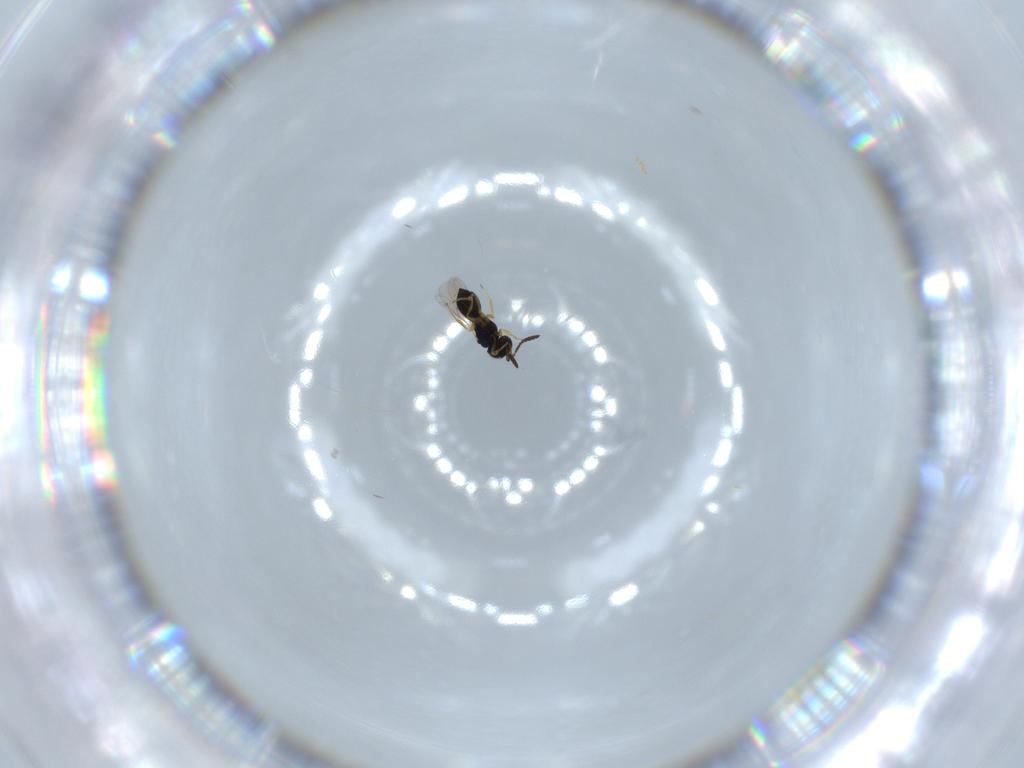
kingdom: Animalia
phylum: Arthropoda
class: Insecta
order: Hymenoptera
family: Scelionidae
